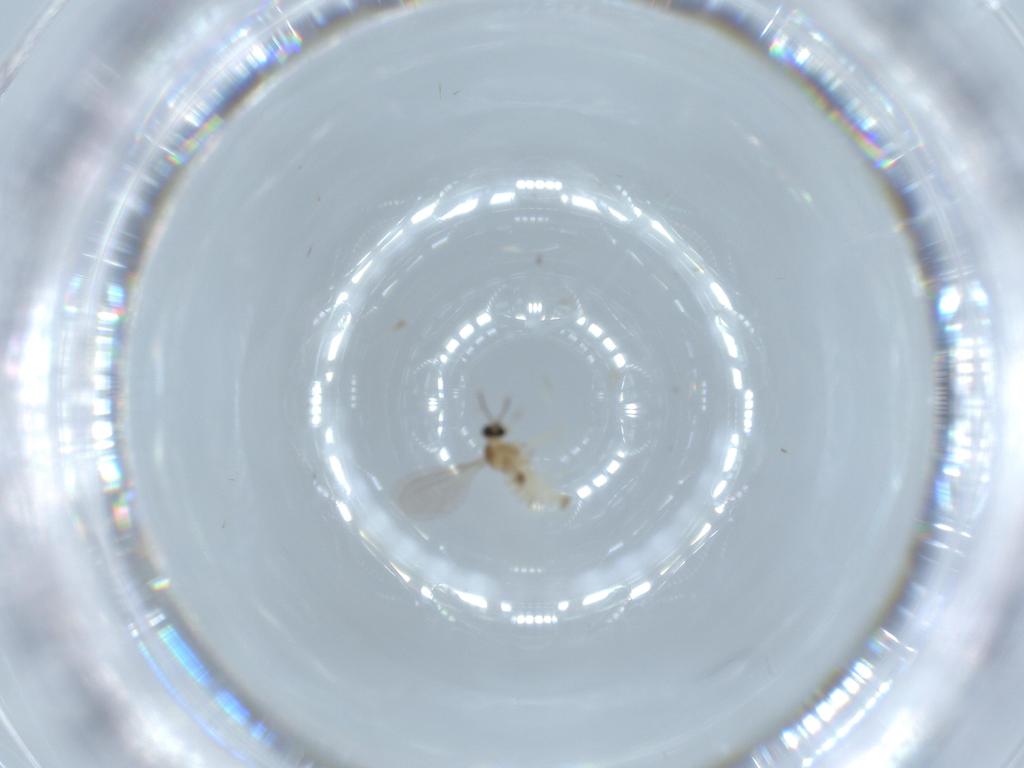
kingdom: Animalia
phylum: Arthropoda
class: Insecta
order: Diptera
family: Cecidomyiidae
